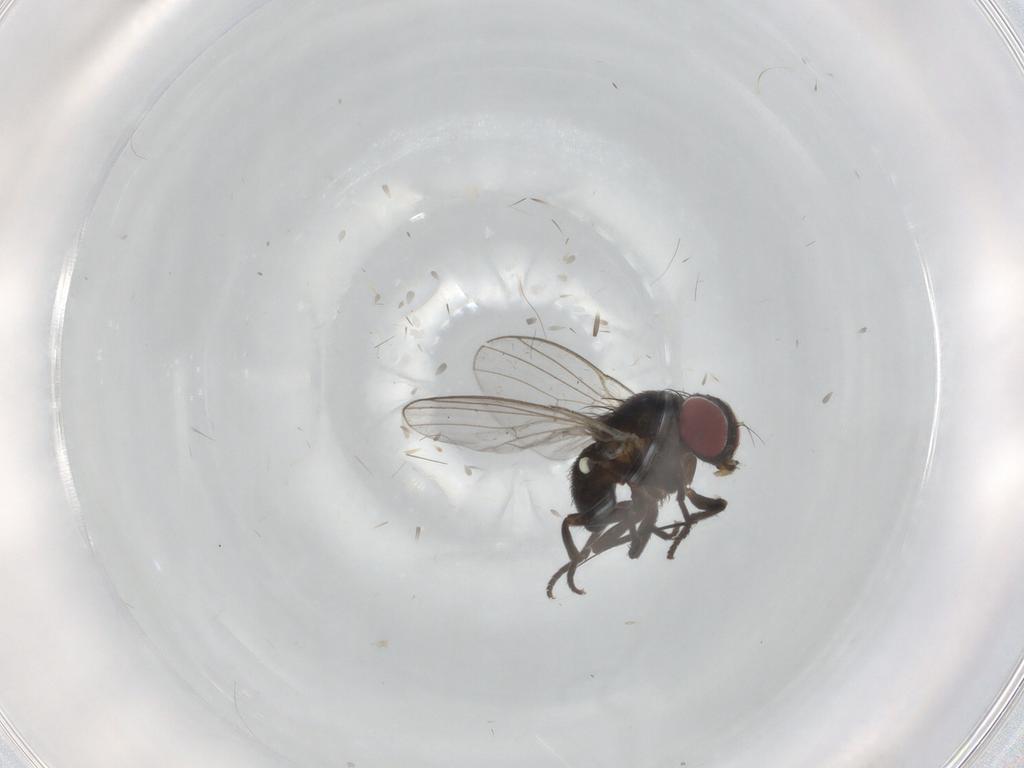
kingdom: Animalia
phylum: Arthropoda
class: Insecta
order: Diptera
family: Agromyzidae
